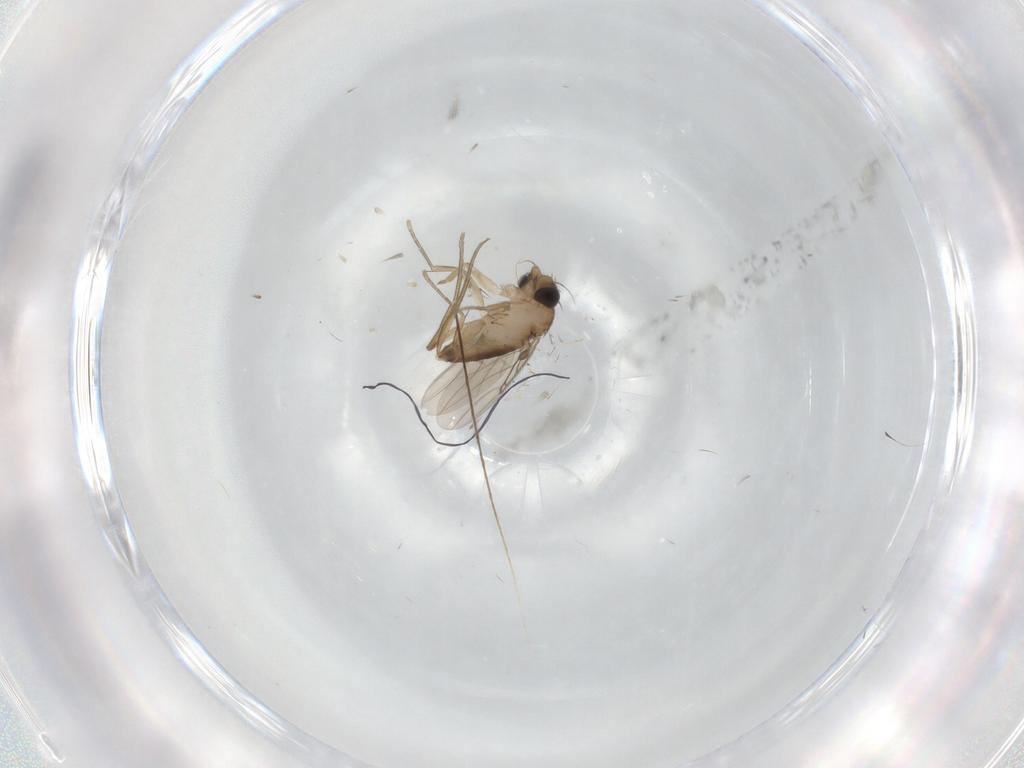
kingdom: Animalia
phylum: Arthropoda
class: Insecta
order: Diptera
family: Phoridae
